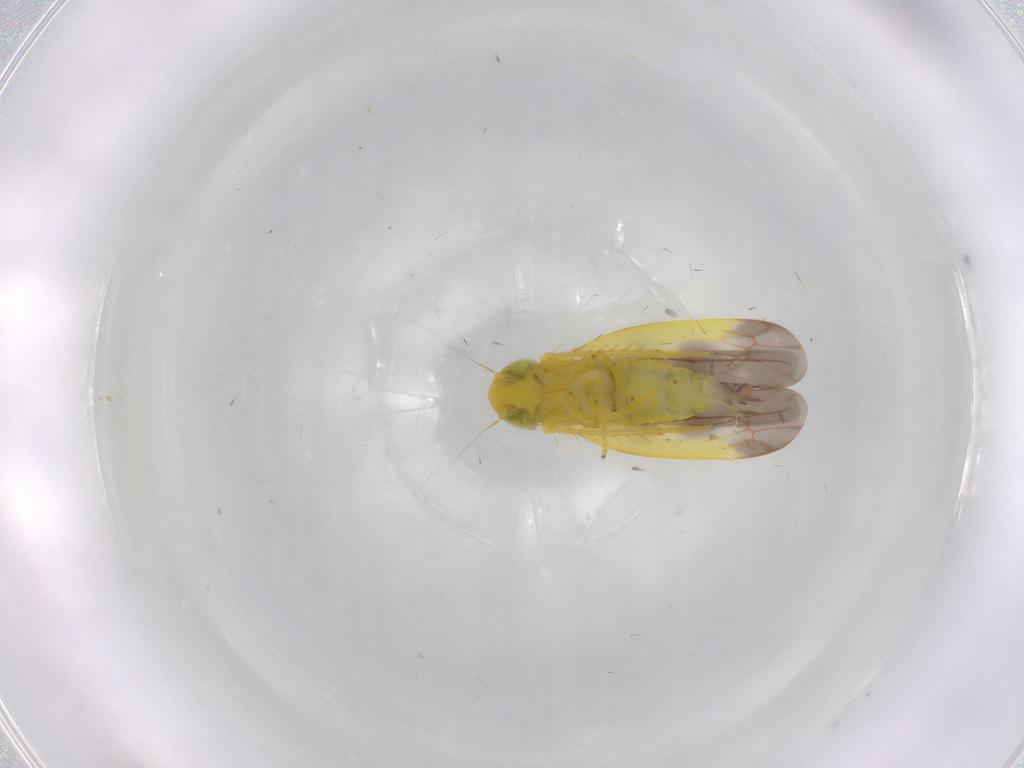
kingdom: Animalia
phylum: Arthropoda
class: Insecta
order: Hemiptera
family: Cicadellidae
